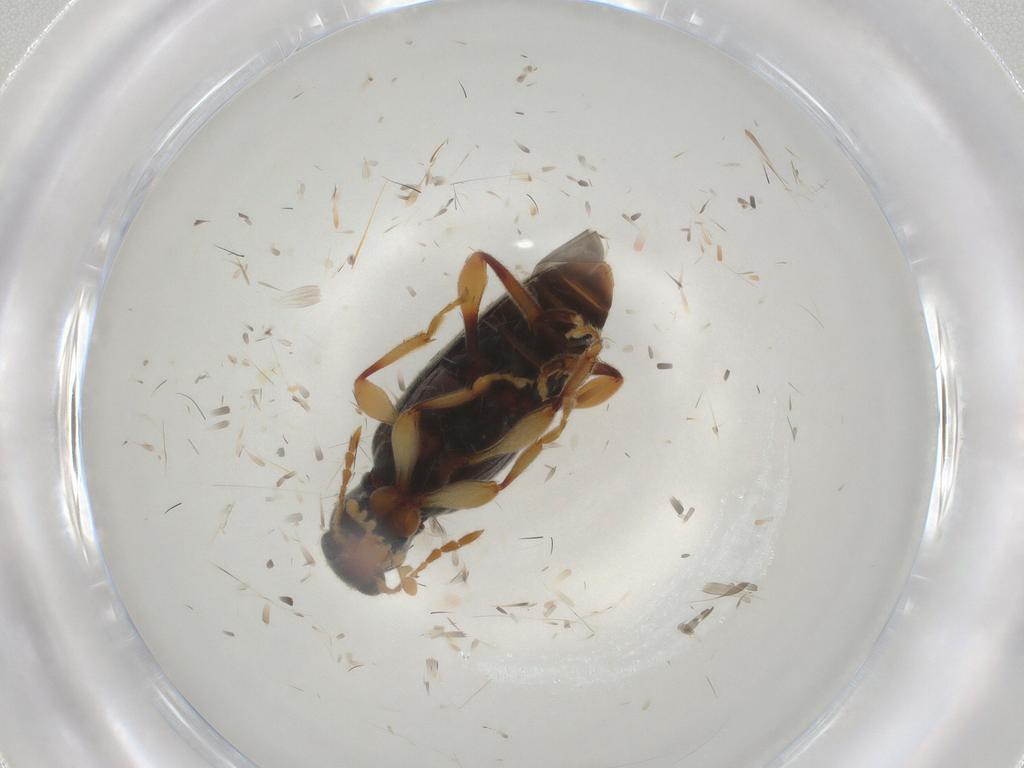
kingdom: Animalia
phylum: Arthropoda
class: Insecta
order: Coleoptera
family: Anthicidae
